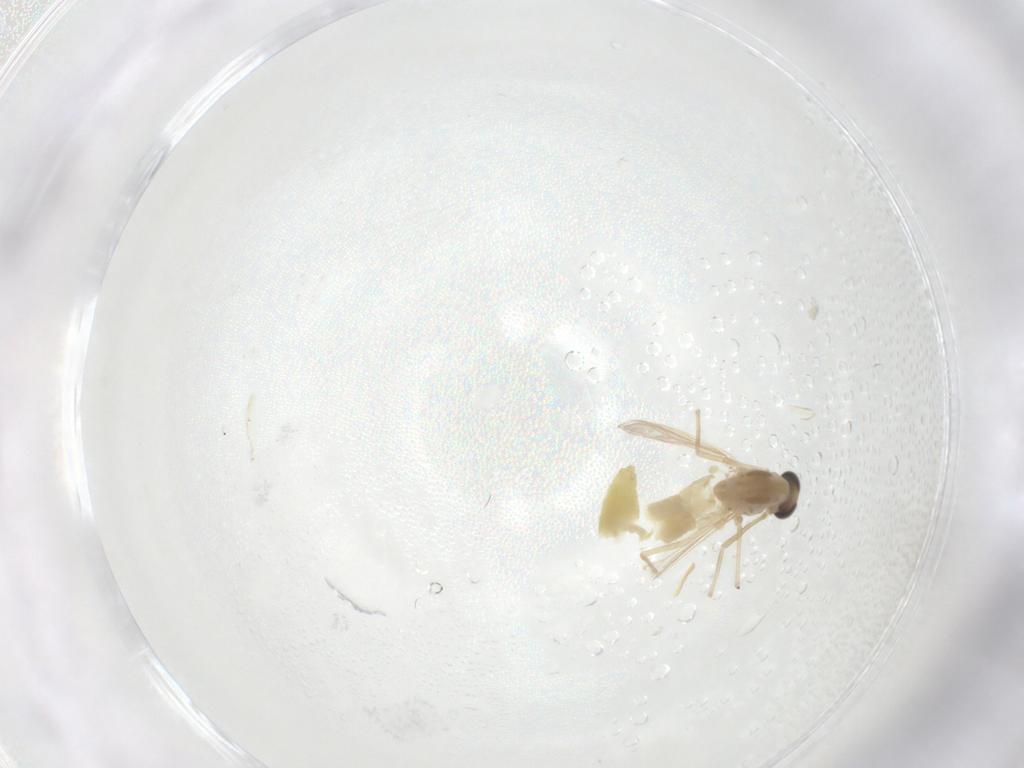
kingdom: Animalia
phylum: Arthropoda
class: Insecta
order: Diptera
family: Chironomidae
